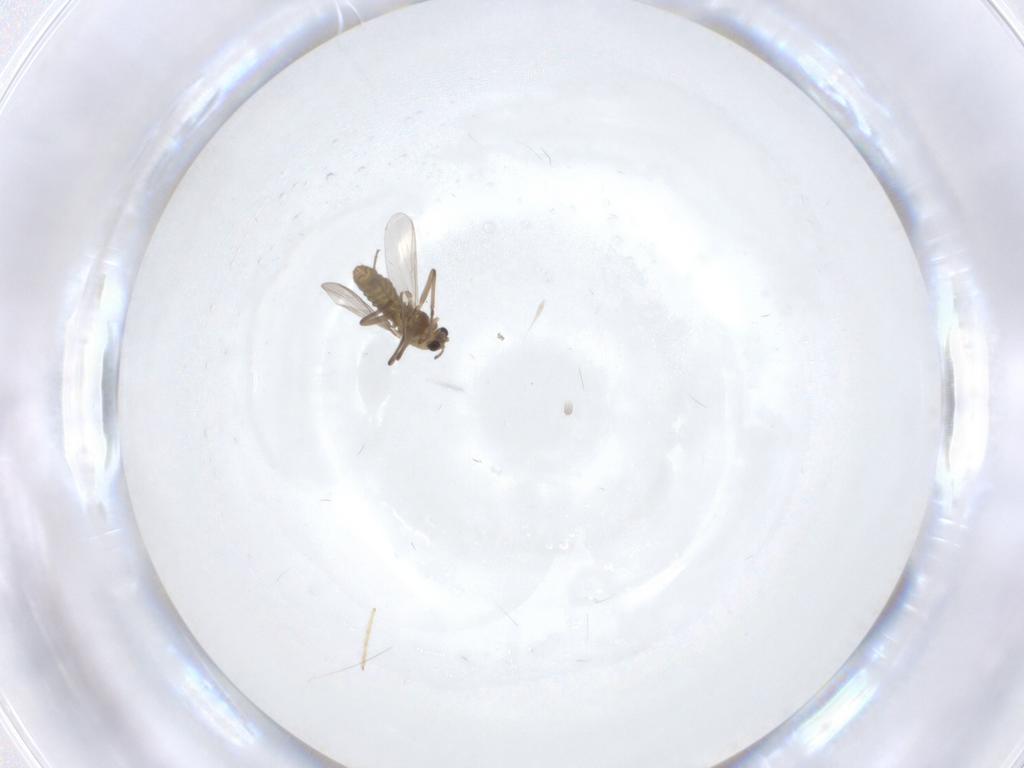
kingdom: Animalia
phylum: Arthropoda
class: Insecta
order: Diptera
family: Chironomidae
